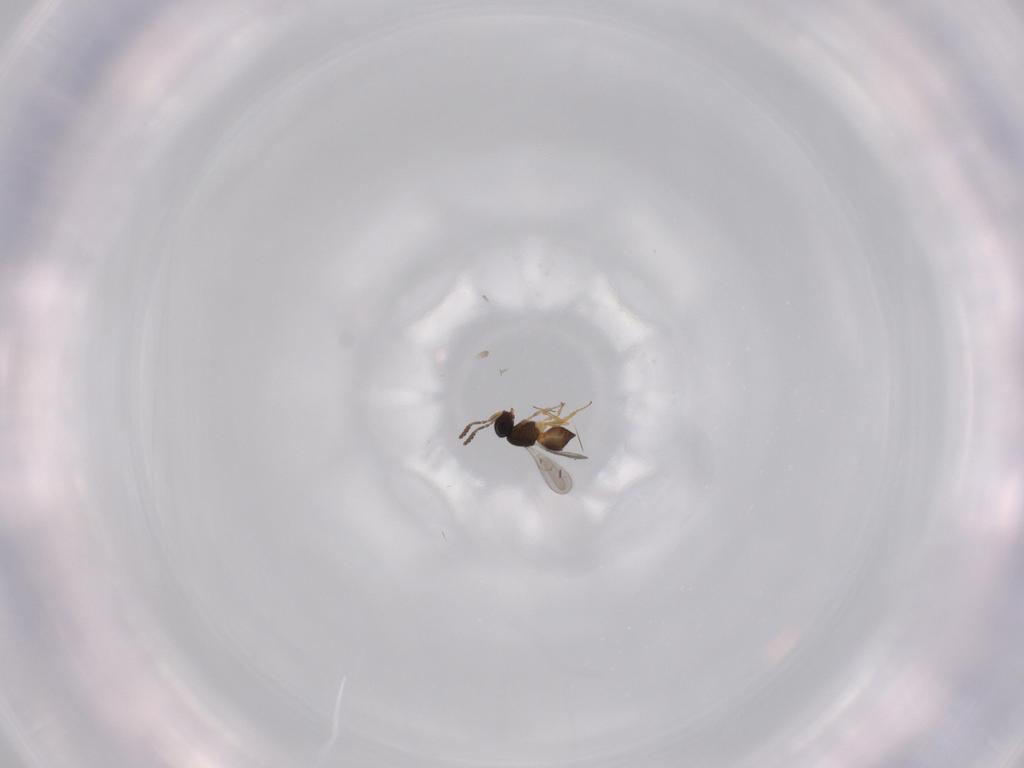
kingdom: Animalia
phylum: Arthropoda
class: Insecta
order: Hymenoptera
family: Scelionidae
